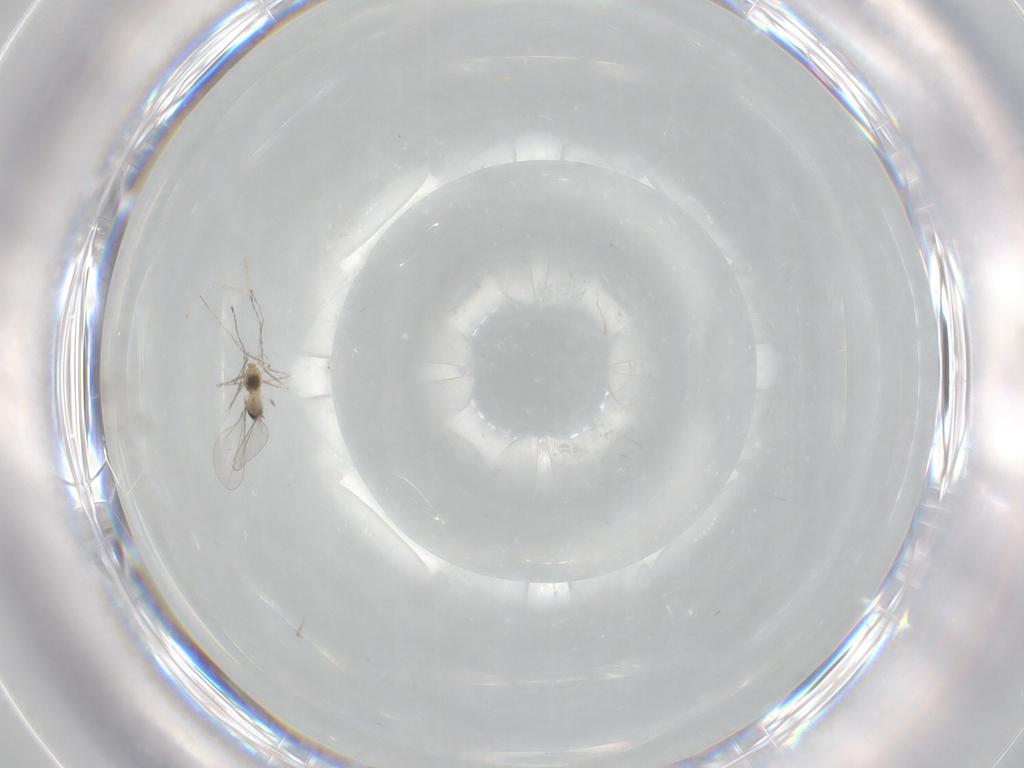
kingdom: Animalia
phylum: Arthropoda
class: Insecta
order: Diptera
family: Cecidomyiidae
